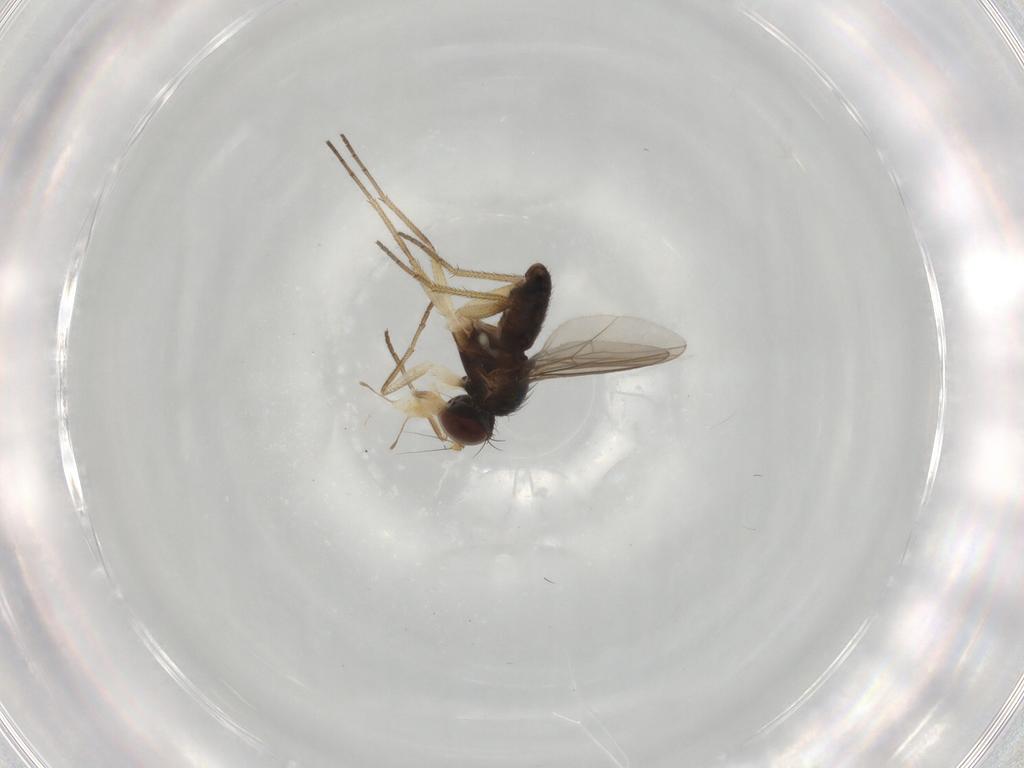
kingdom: Animalia
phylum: Arthropoda
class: Insecta
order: Diptera
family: Dolichopodidae
